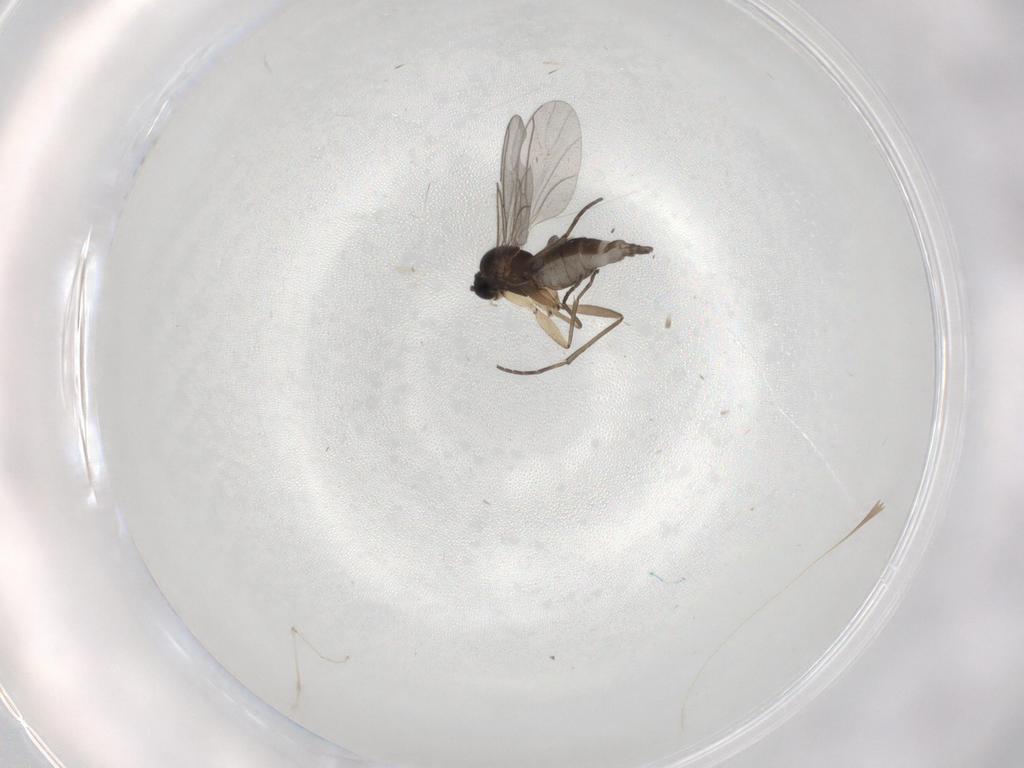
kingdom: Animalia
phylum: Arthropoda
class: Insecta
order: Diptera
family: Sciaridae
